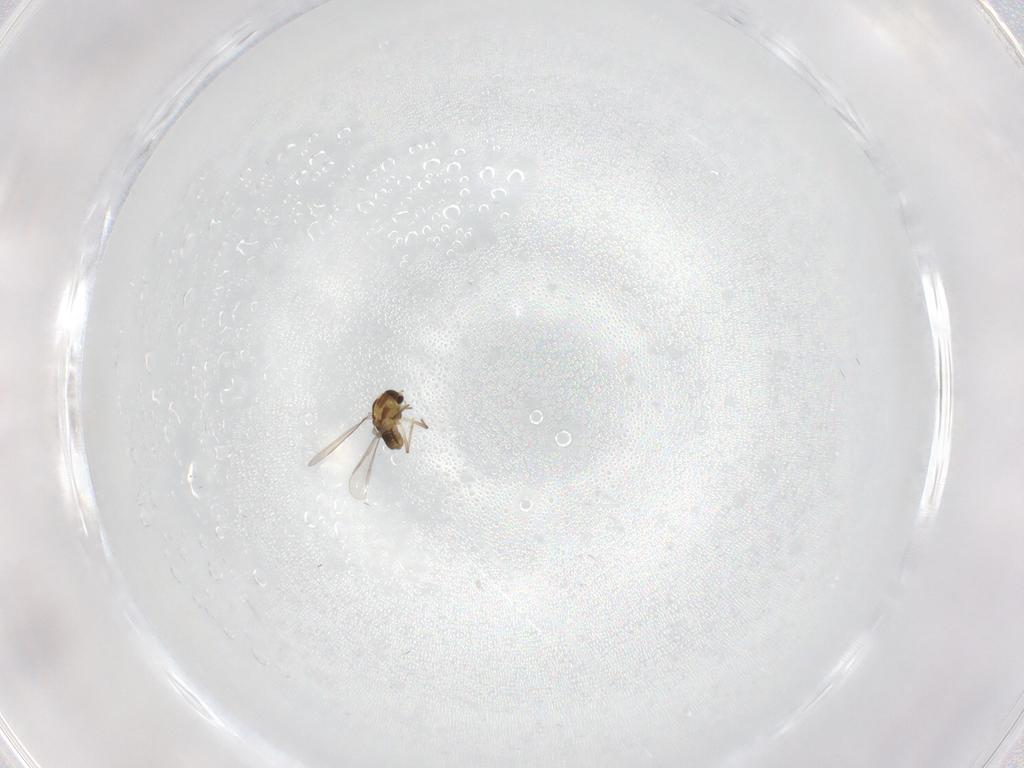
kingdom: Animalia
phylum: Arthropoda
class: Insecta
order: Diptera
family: Chironomidae
